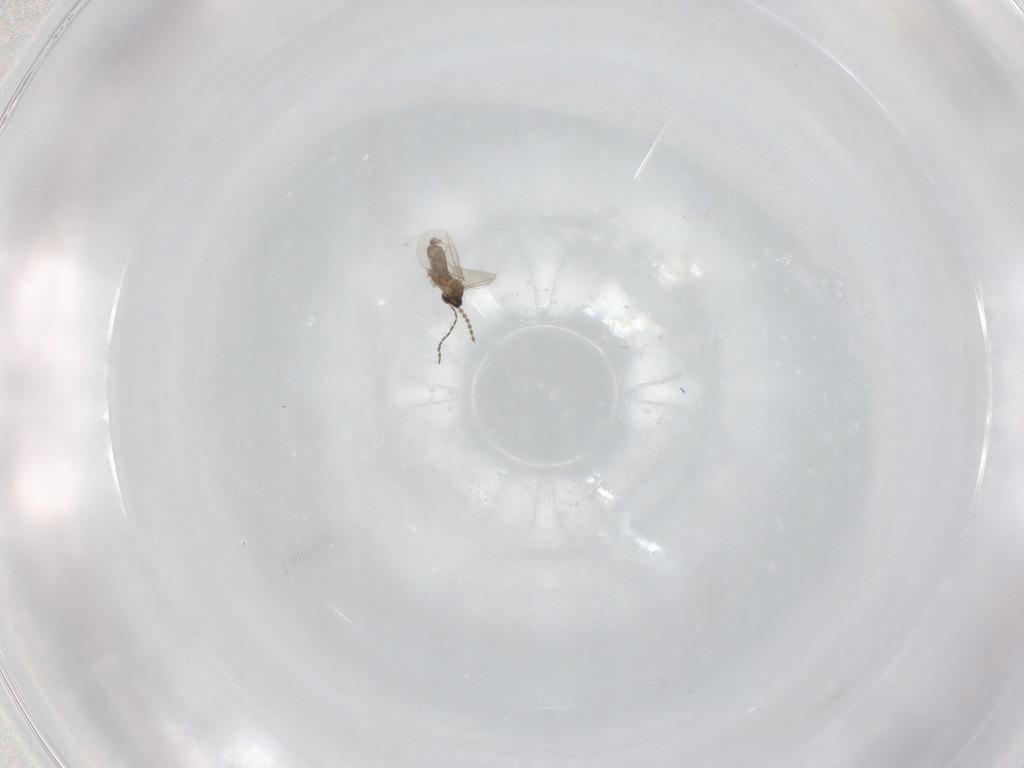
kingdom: Animalia
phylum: Arthropoda
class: Insecta
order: Diptera
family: Cecidomyiidae
